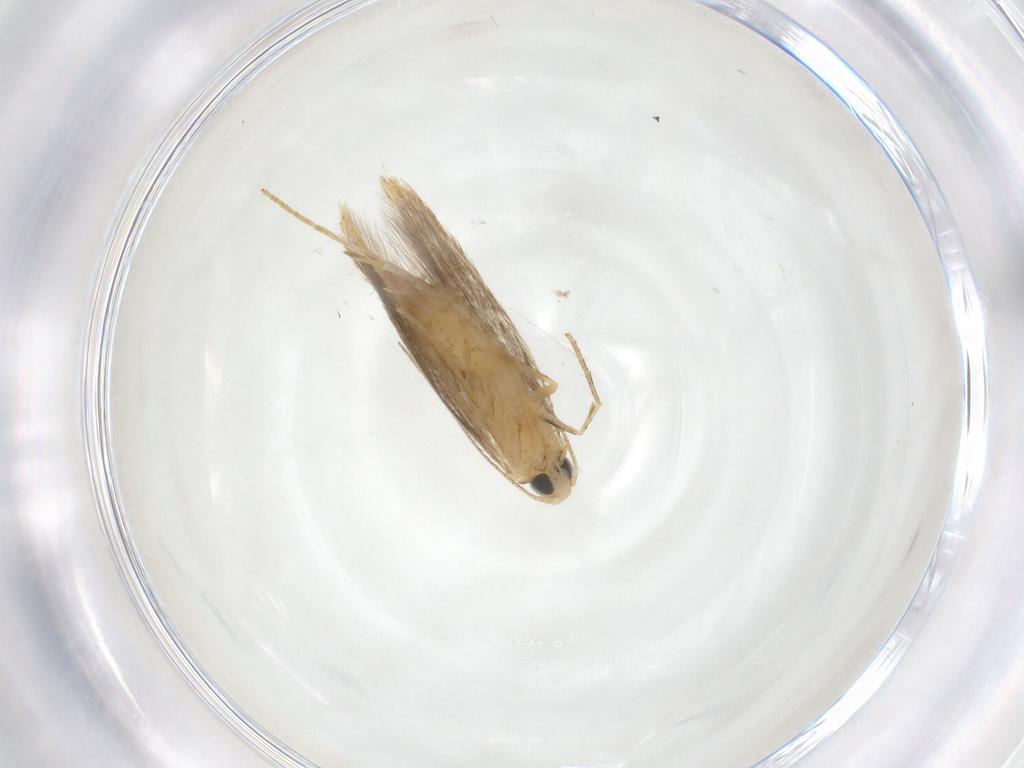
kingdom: Animalia
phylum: Arthropoda
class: Insecta
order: Lepidoptera
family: Tischeriidae
